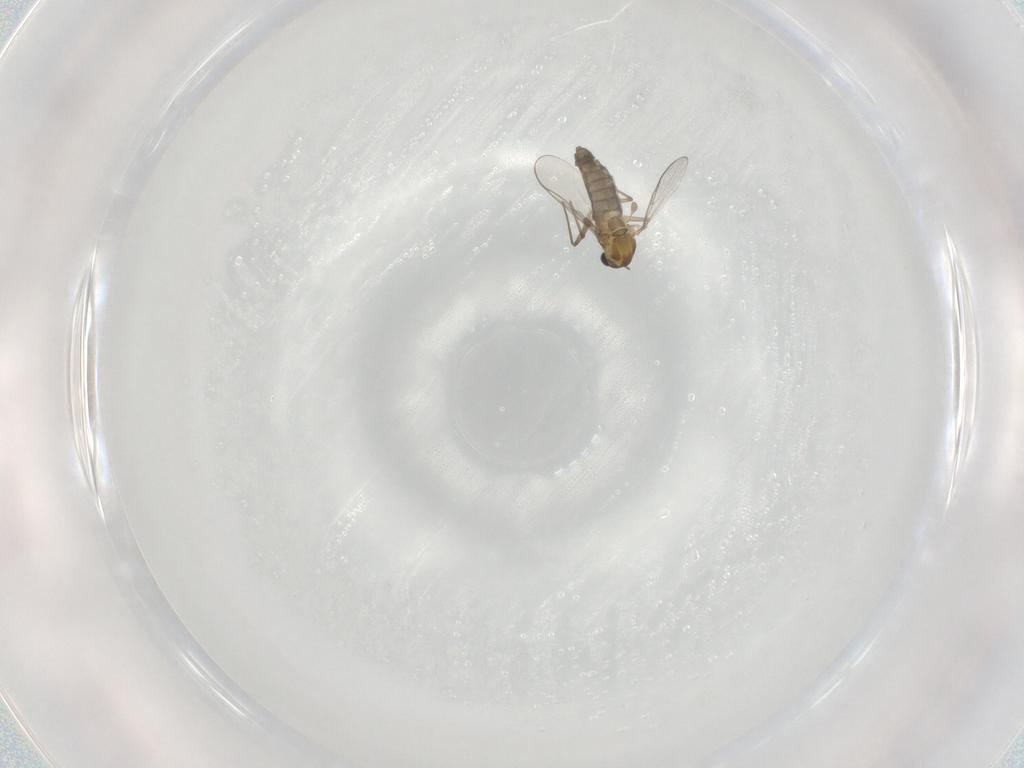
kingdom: Animalia
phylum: Arthropoda
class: Insecta
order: Diptera
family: Chironomidae
